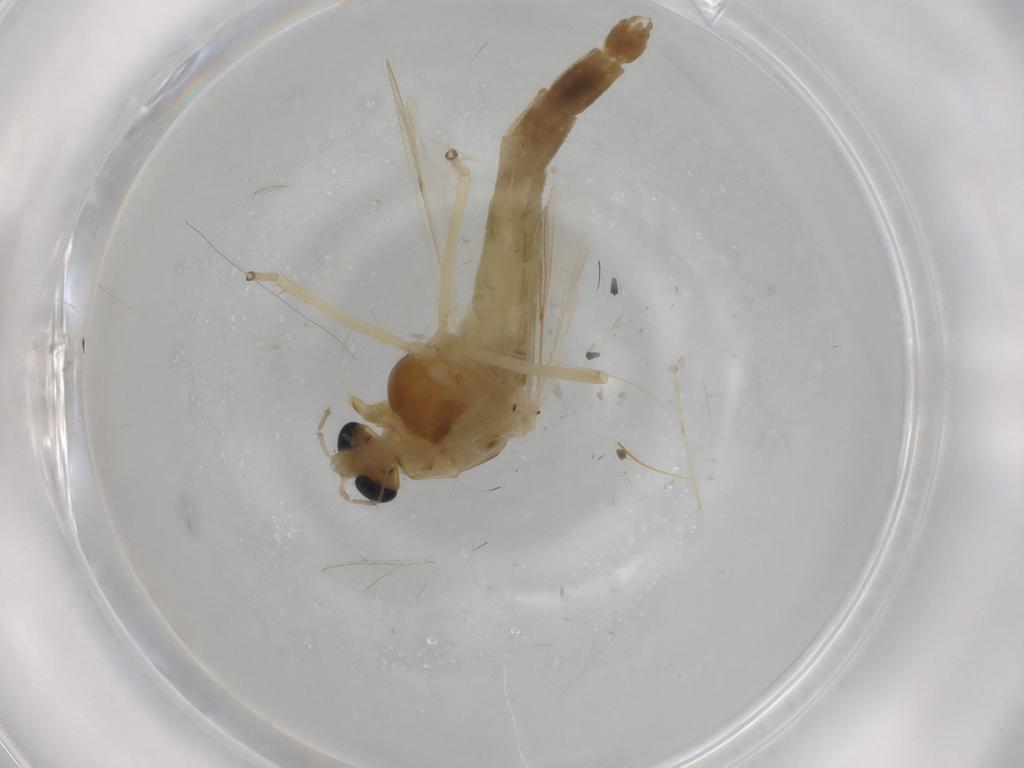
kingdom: Animalia
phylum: Arthropoda
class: Insecta
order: Diptera
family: Chironomidae
